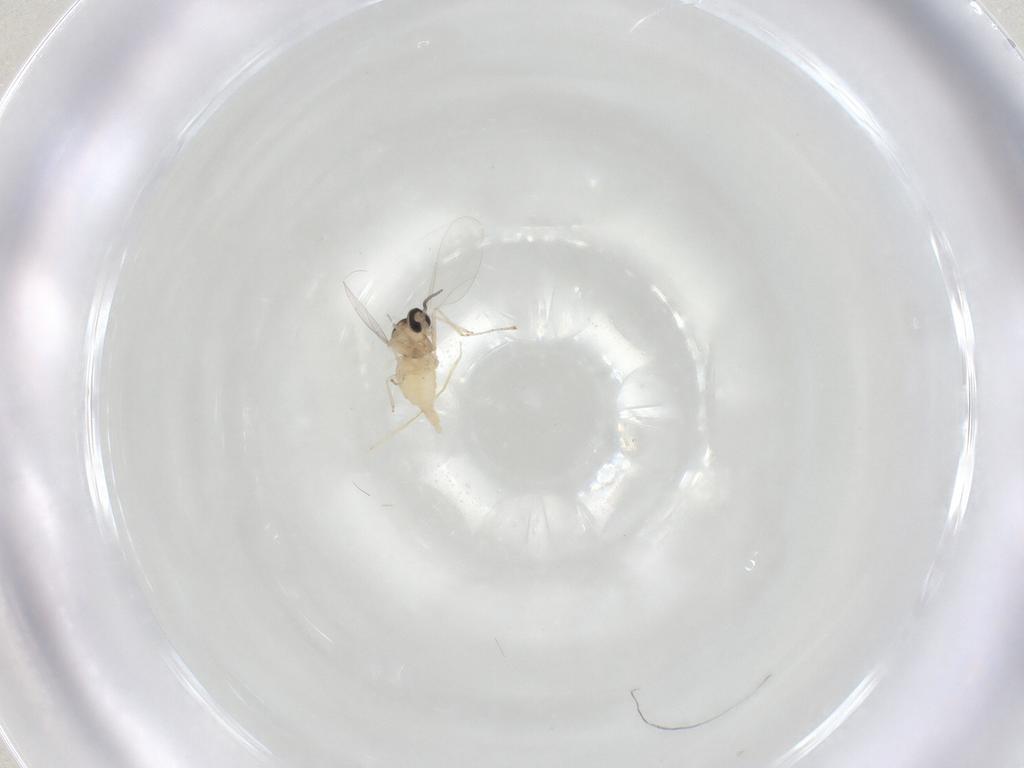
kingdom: Animalia
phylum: Arthropoda
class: Insecta
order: Diptera
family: Cecidomyiidae
